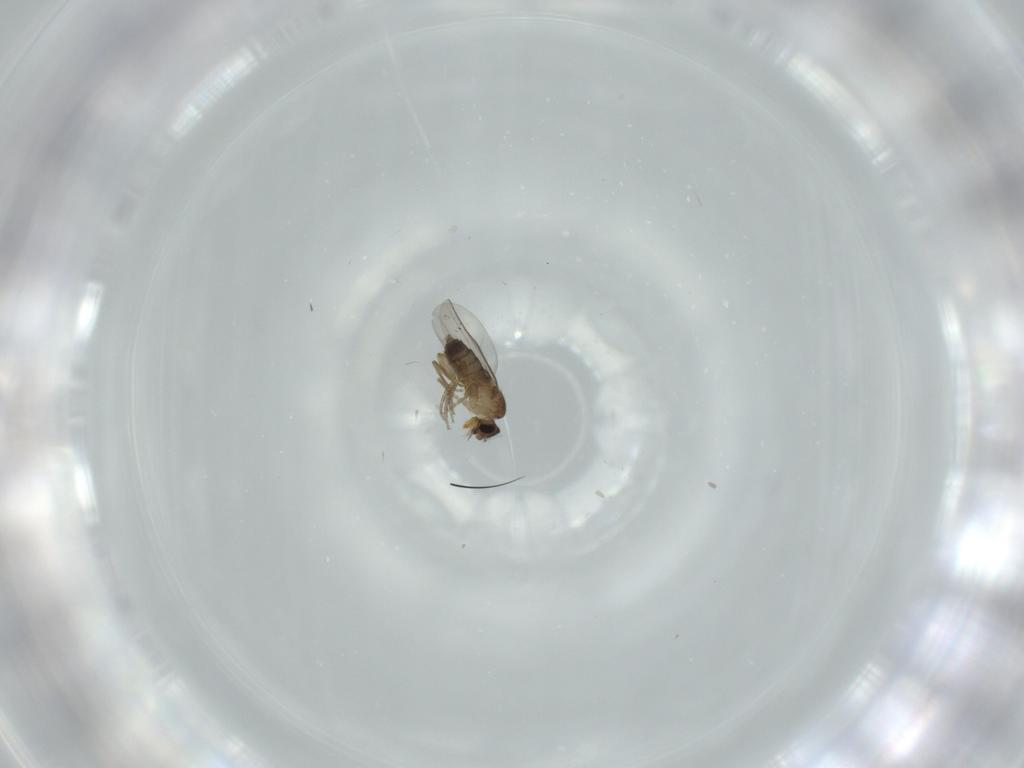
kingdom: Animalia
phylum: Arthropoda
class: Insecta
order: Diptera
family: Phoridae
